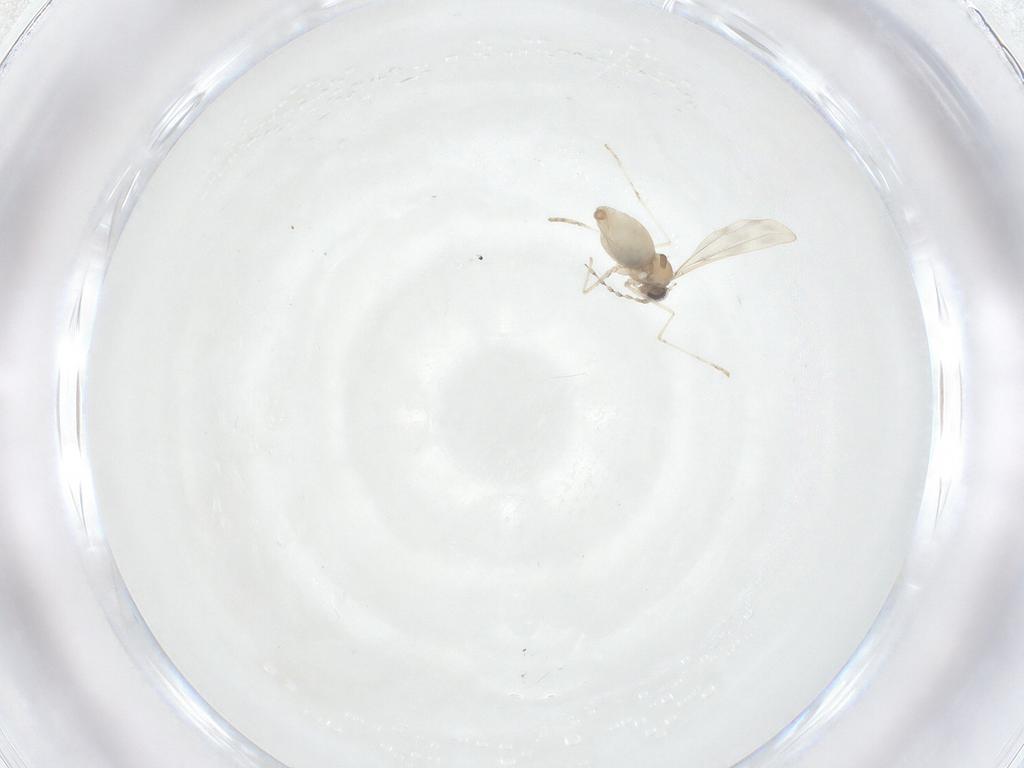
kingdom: Animalia
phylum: Arthropoda
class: Insecta
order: Diptera
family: Cecidomyiidae
